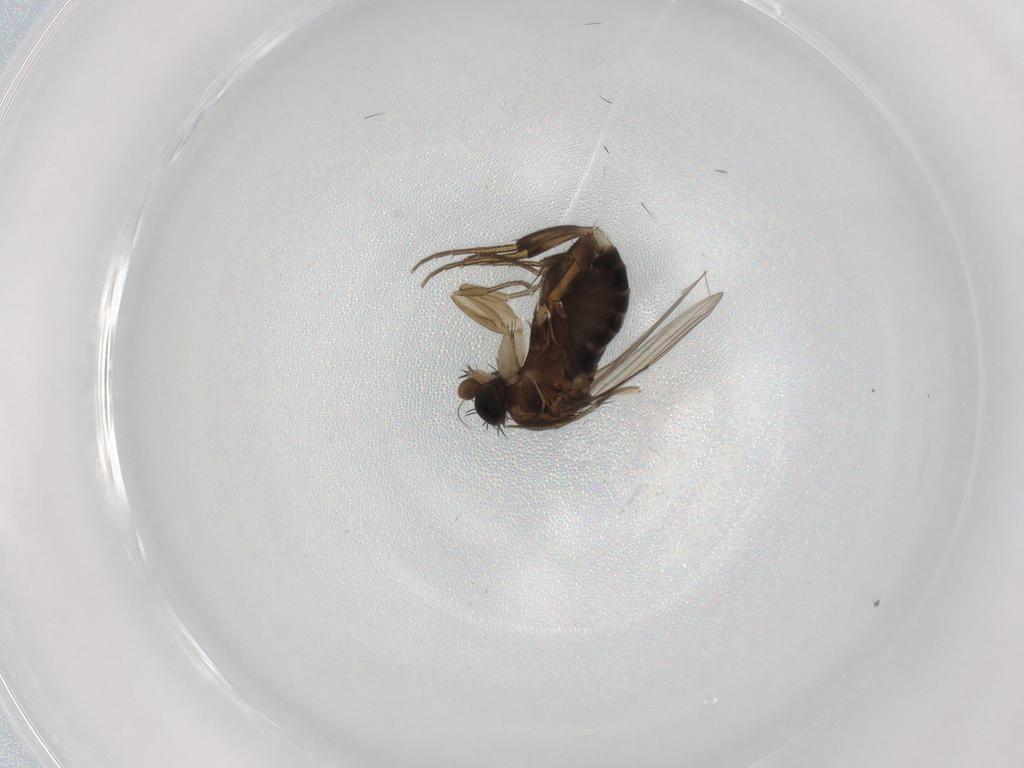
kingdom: Animalia
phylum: Arthropoda
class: Insecta
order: Diptera
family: Phoridae
